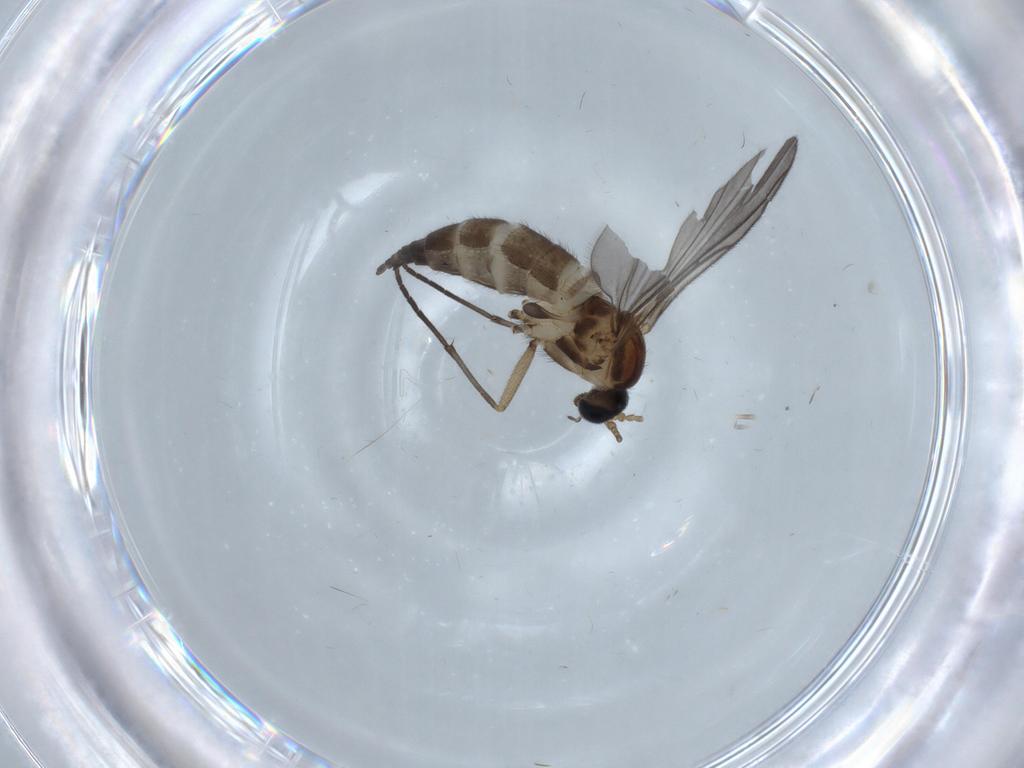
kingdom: Animalia
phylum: Arthropoda
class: Insecta
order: Diptera
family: Sciaridae
